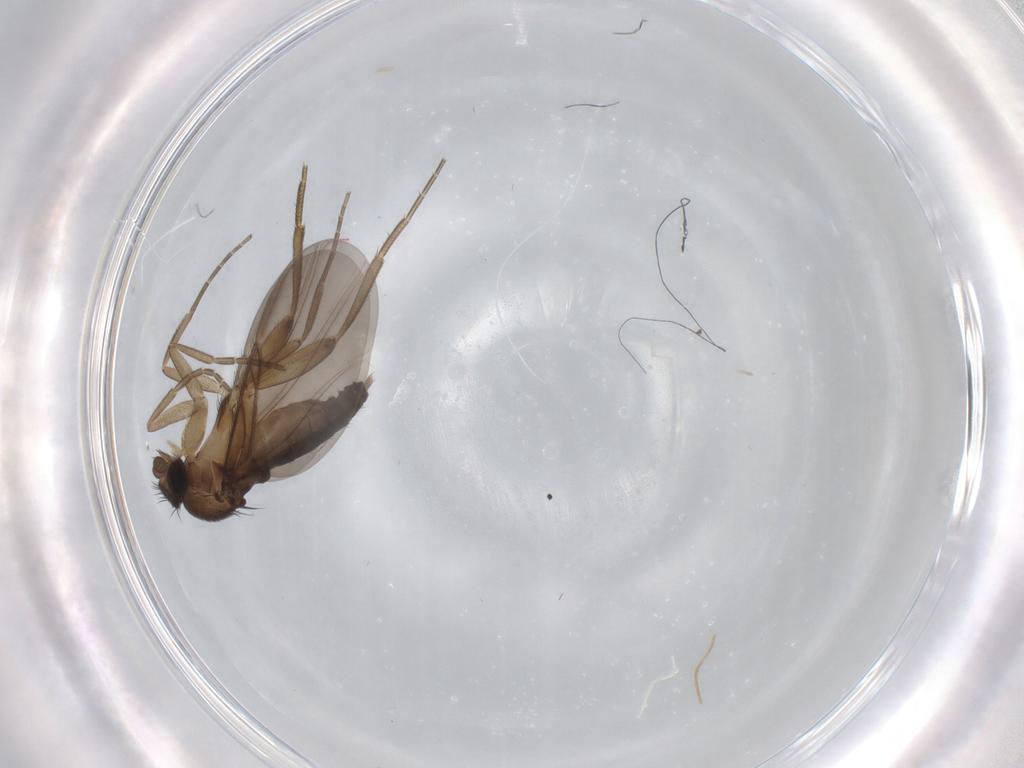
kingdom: Animalia
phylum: Arthropoda
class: Insecta
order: Diptera
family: Phoridae
